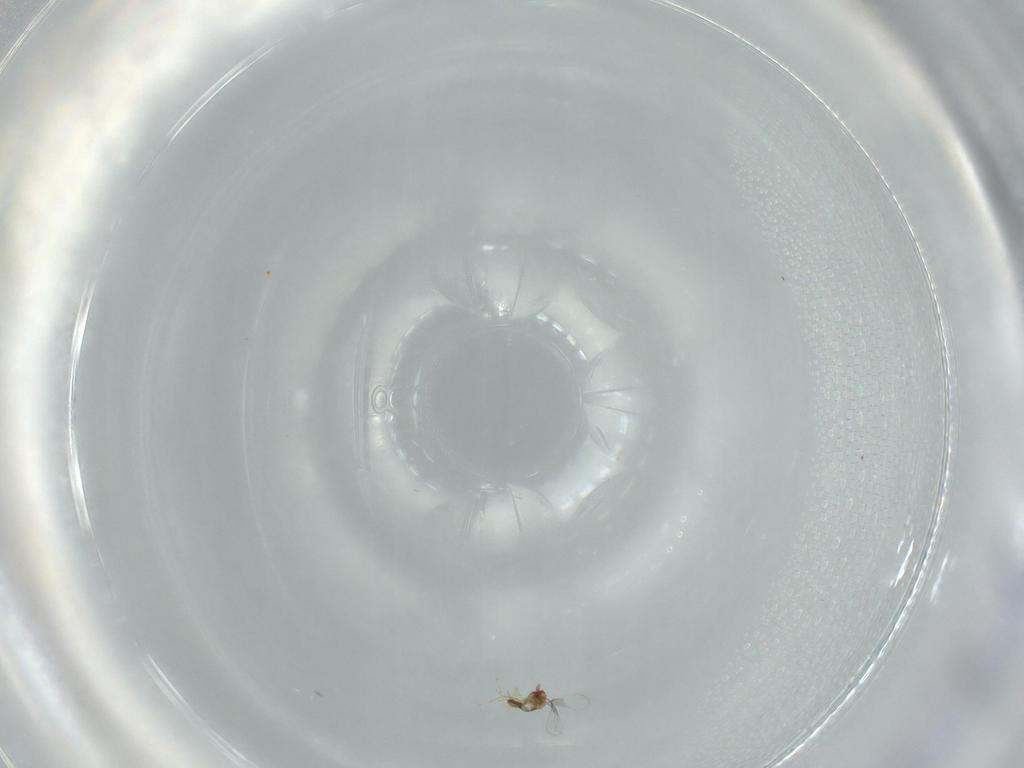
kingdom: Animalia
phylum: Arthropoda
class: Insecta
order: Hymenoptera
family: Trichogrammatidae
